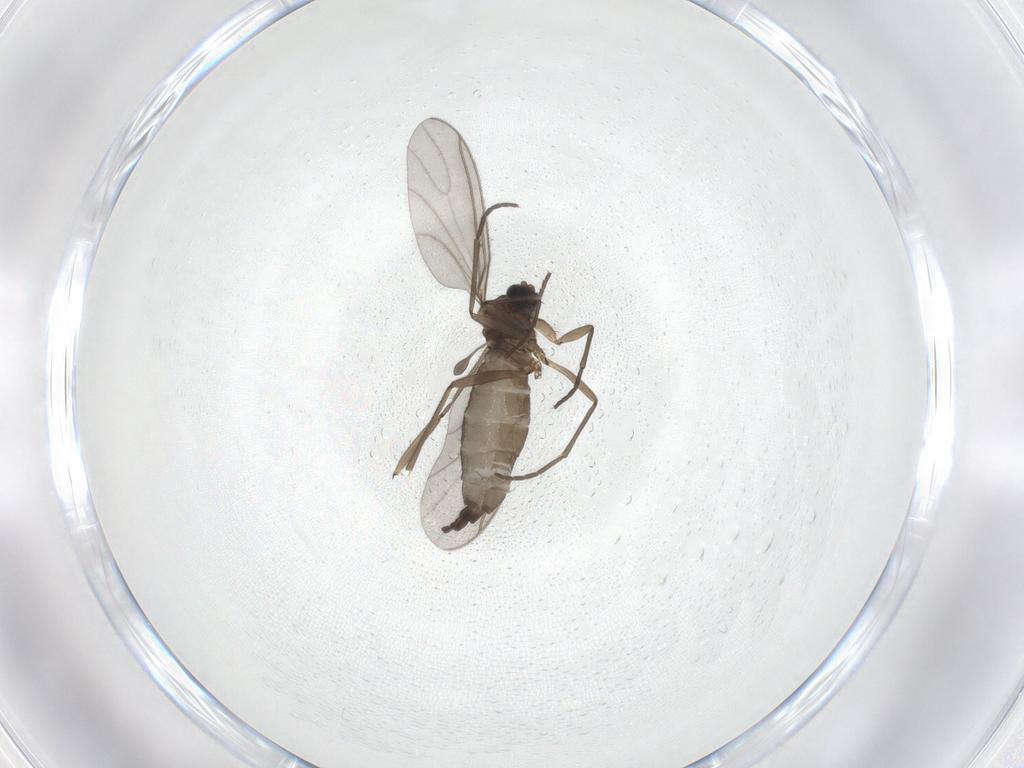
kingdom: Animalia
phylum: Arthropoda
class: Insecta
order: Diptera
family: Sciaridae
